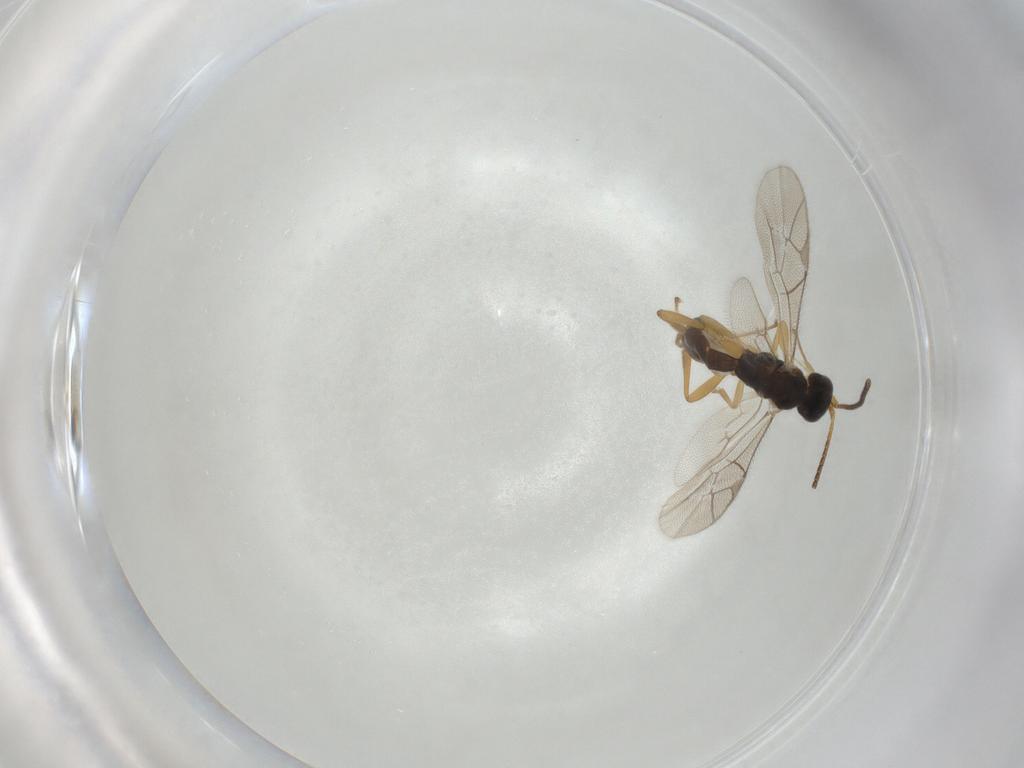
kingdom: Animalia
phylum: Arthropoda
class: Insecta
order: Hymenoptera
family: Ichneumonidae
